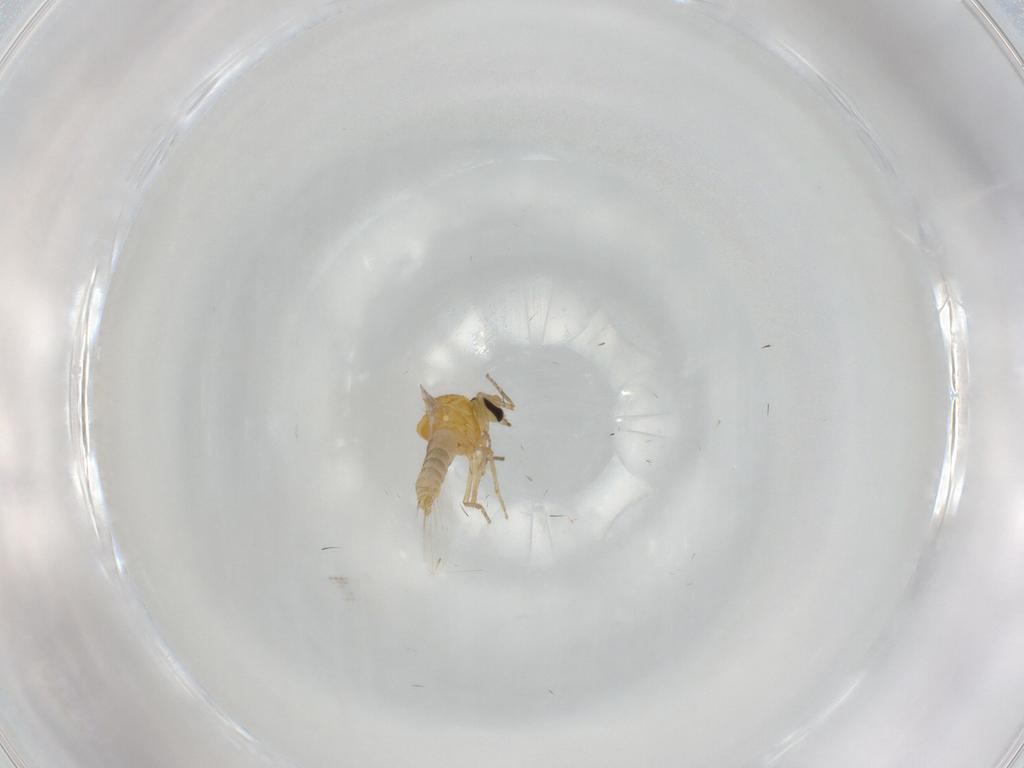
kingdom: Animalia
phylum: Arthropoda
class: Insecta
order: Diptera
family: Ceratopogonidae
